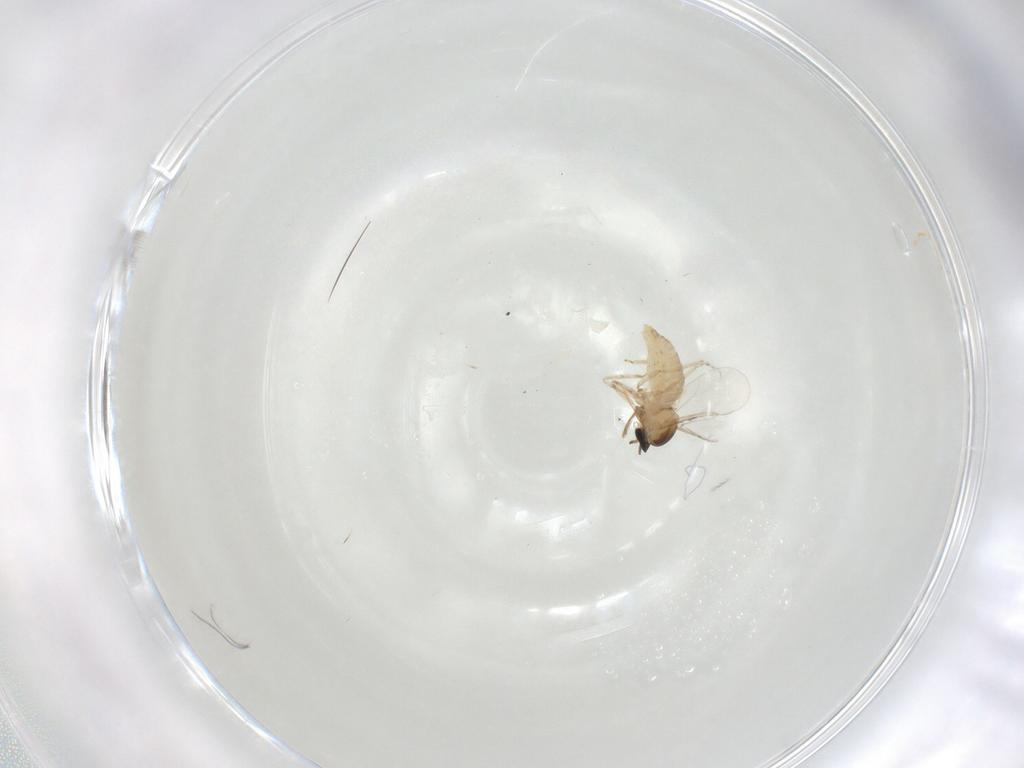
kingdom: Animalia
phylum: Arthropoda
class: Insecta
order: Diptera
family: Cecidomyiidae
